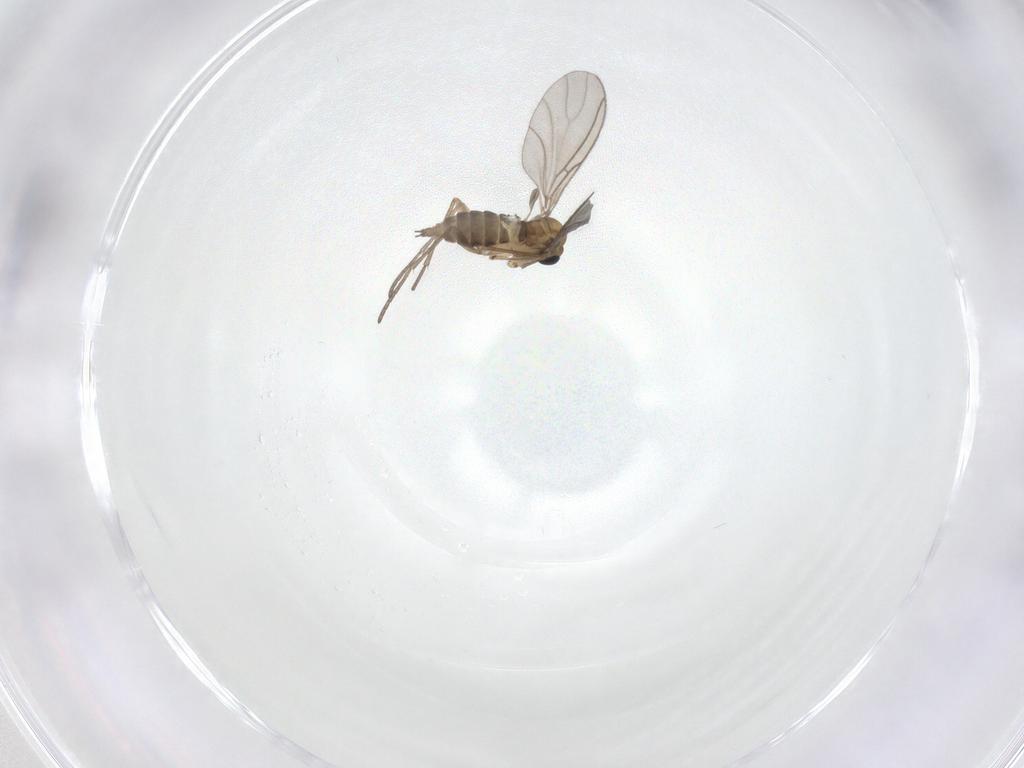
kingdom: Animalia
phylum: Arthropoda
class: Insecta
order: Diptera
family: Sciaridae
